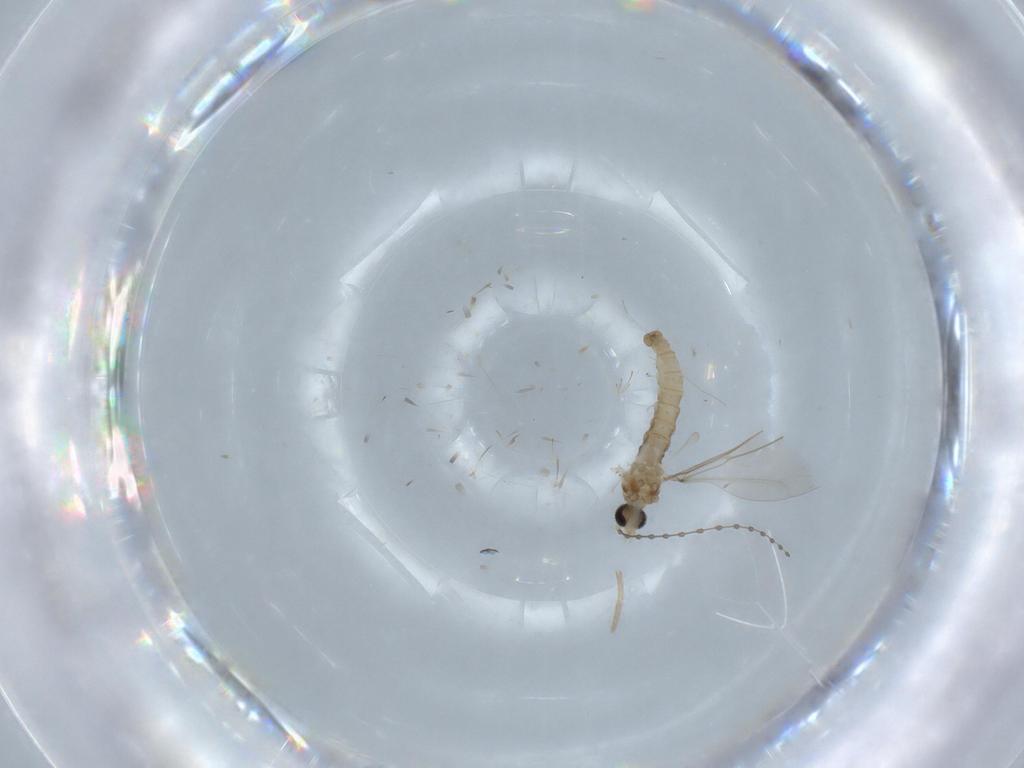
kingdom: Animalia
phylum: Arthropoda
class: Insecta
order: Diptera
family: Cecidomyiidae
